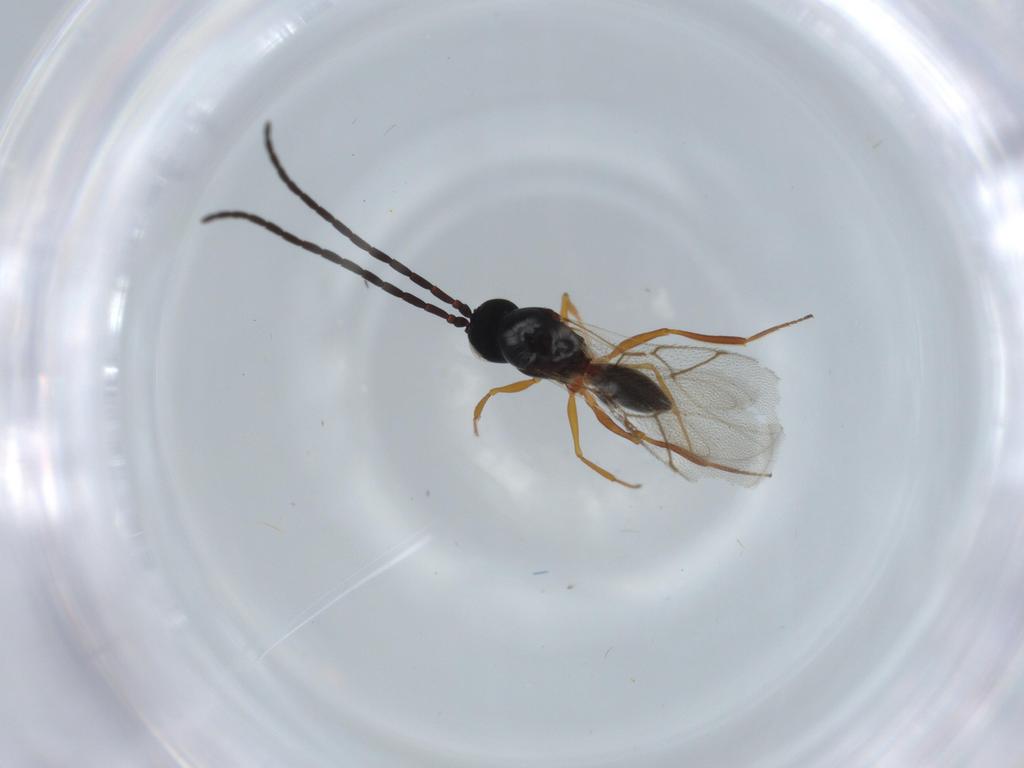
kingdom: Animalia
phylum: Arthropoda
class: Insecta
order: Hymenoptera
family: Figitidae
